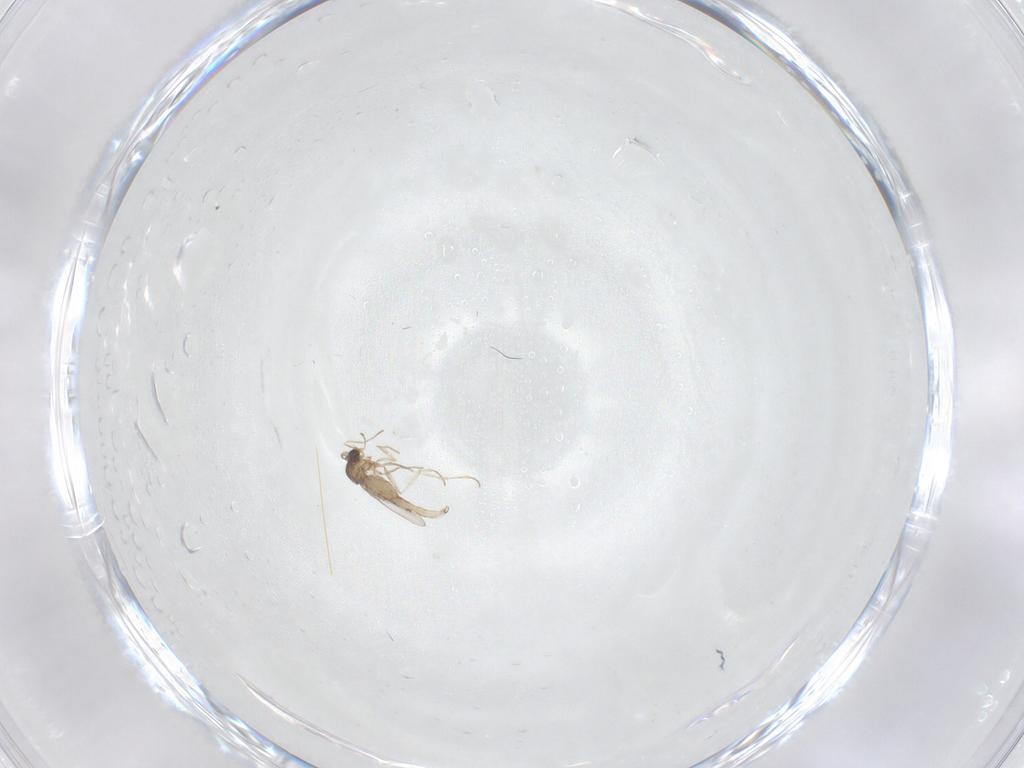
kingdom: Animalia
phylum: Arthropoda
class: Insecta
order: Diptera
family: Cecidomyiidae
